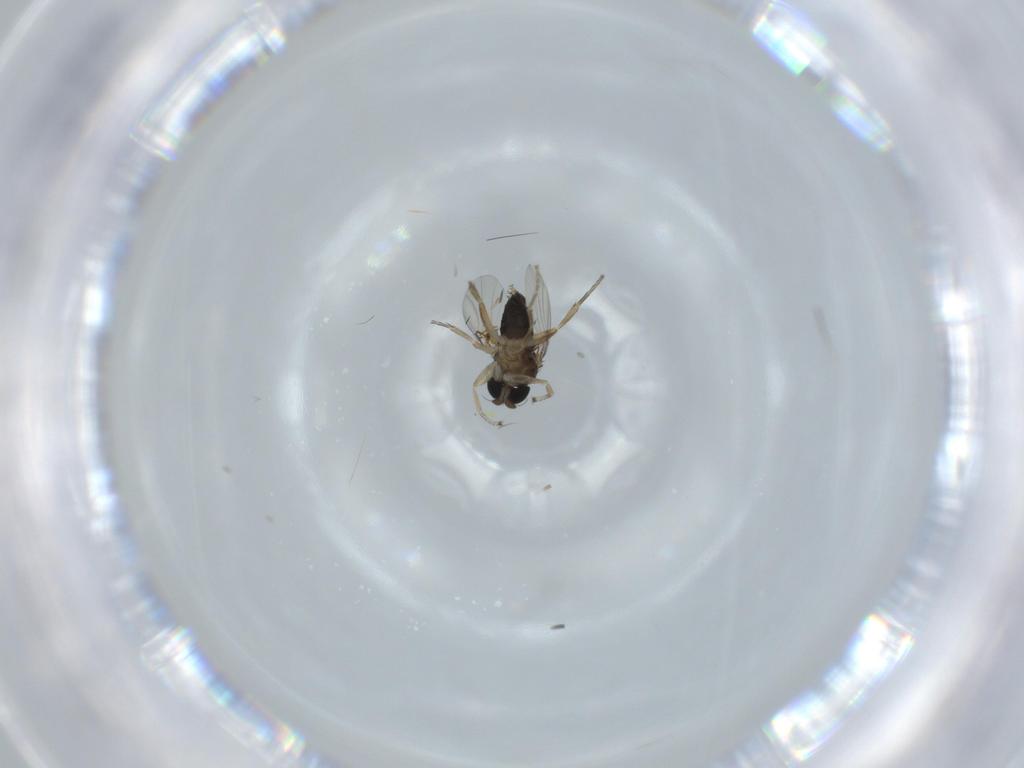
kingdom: Animalia
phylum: Arthropoda
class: Insecta
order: Diptera
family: Phoridae
